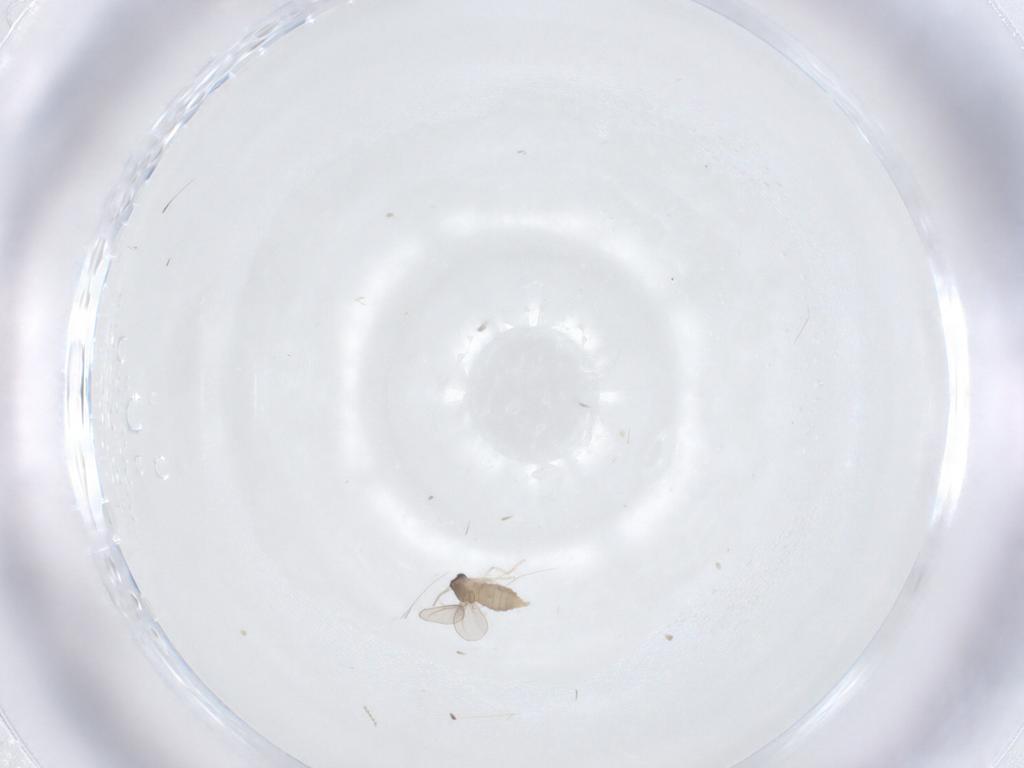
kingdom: Animalia
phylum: Arthropoda
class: Insecta
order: Diptera
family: Cecidomyiidae
